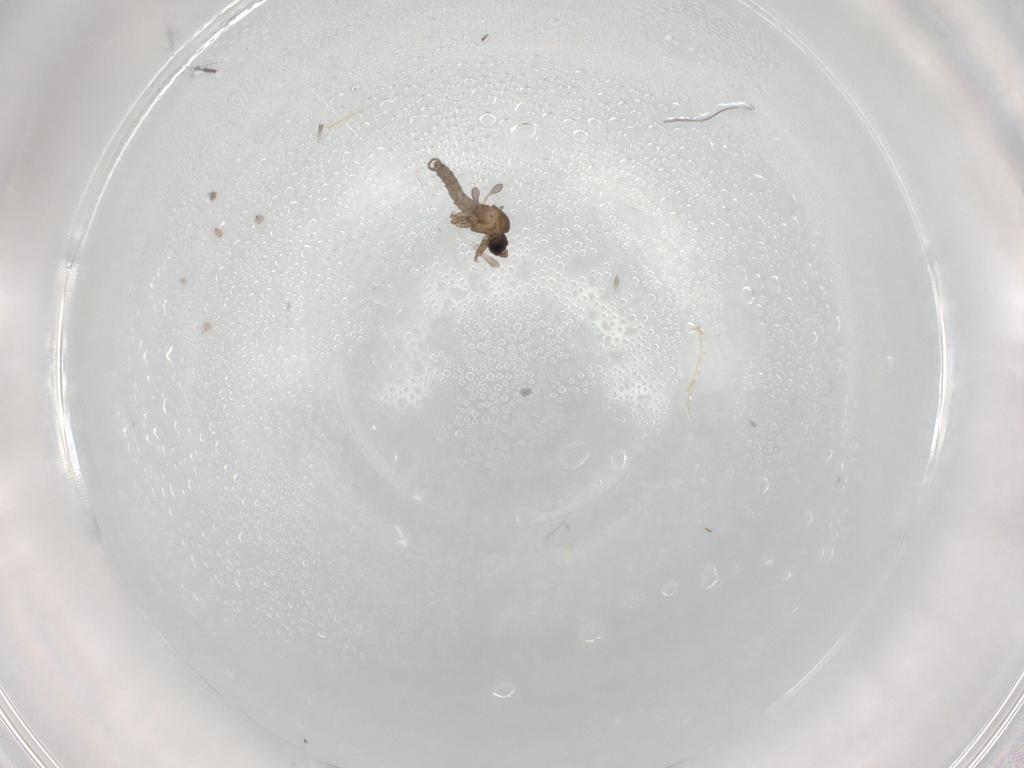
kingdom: Animalia
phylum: Arthropoda
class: Insecta
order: Diptera
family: Sciaridae
